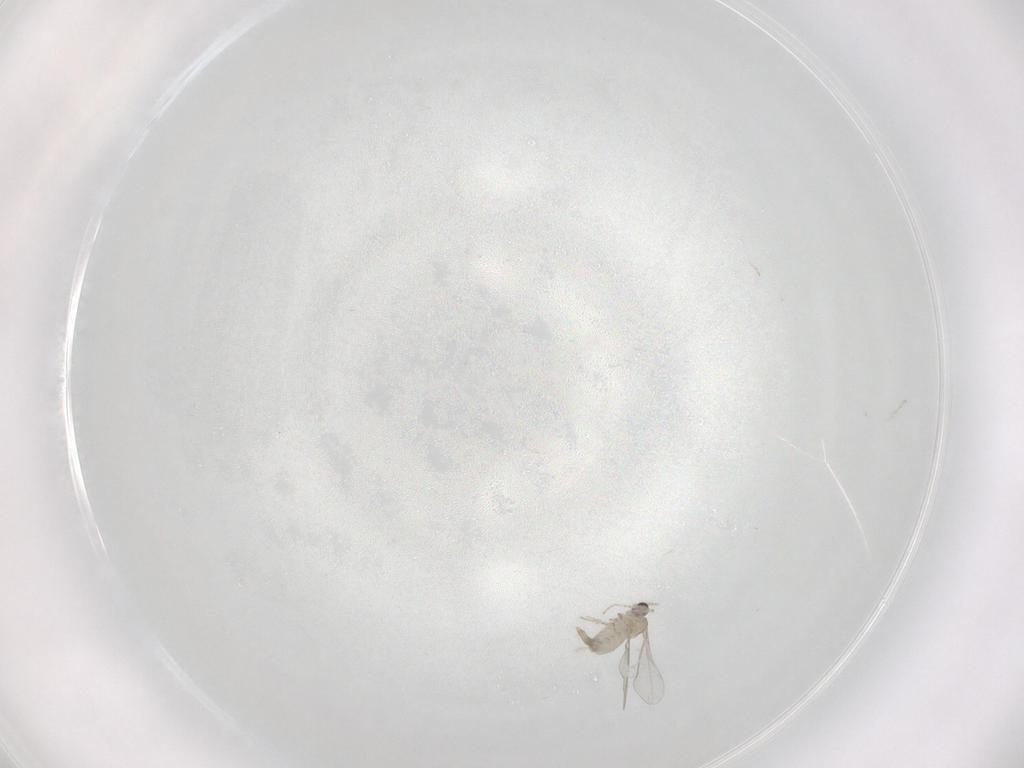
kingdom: Animalia
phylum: Arthropoda
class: Insecta
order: Diptera
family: Cecidomyiidae
